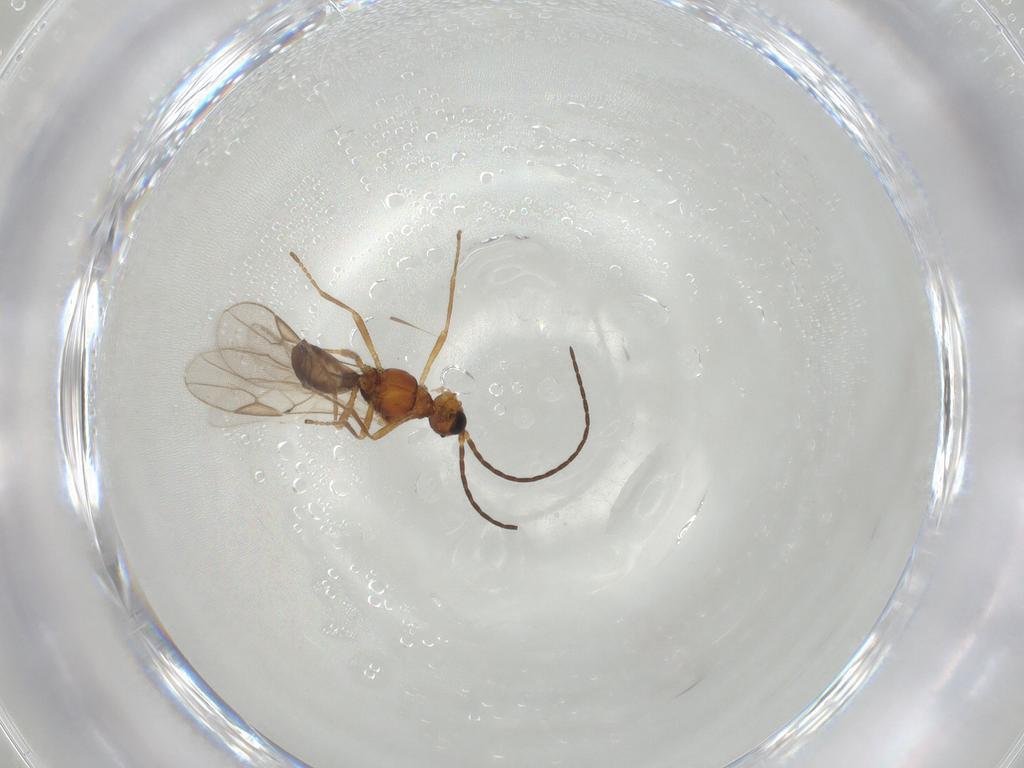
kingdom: Animalia
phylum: Arthropoda
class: Insecta
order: Hymenoptera
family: Braconidae
